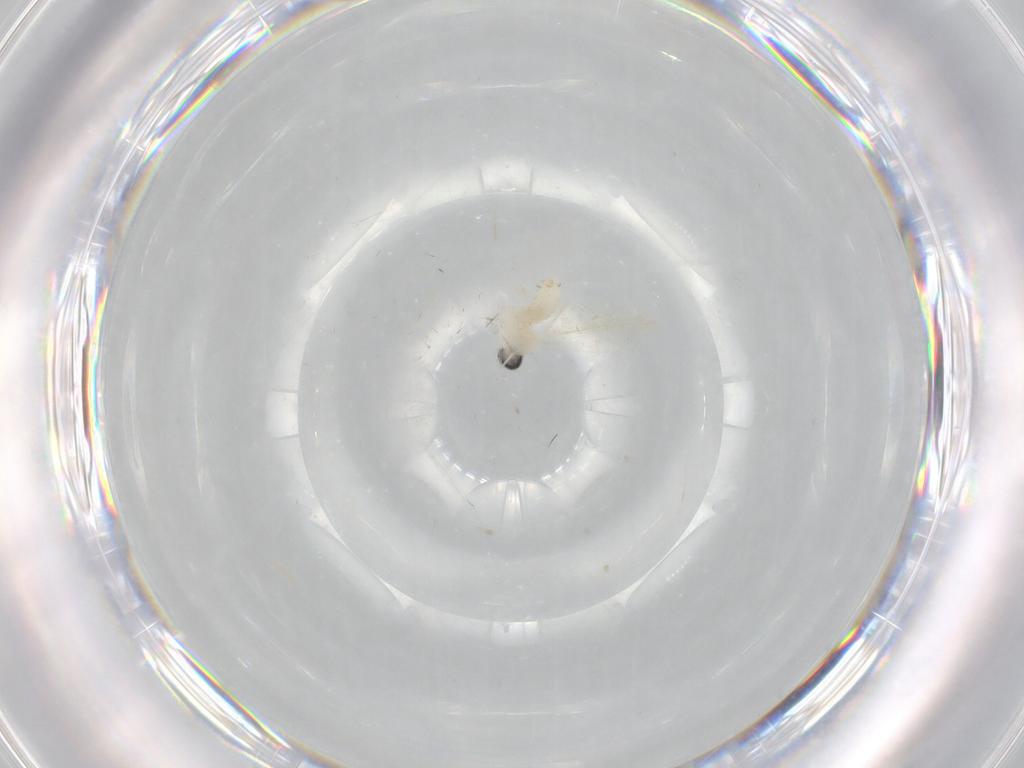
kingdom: Animalia
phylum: Arthropoda
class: Insecta
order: Diptera
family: Cecidomyiidae
